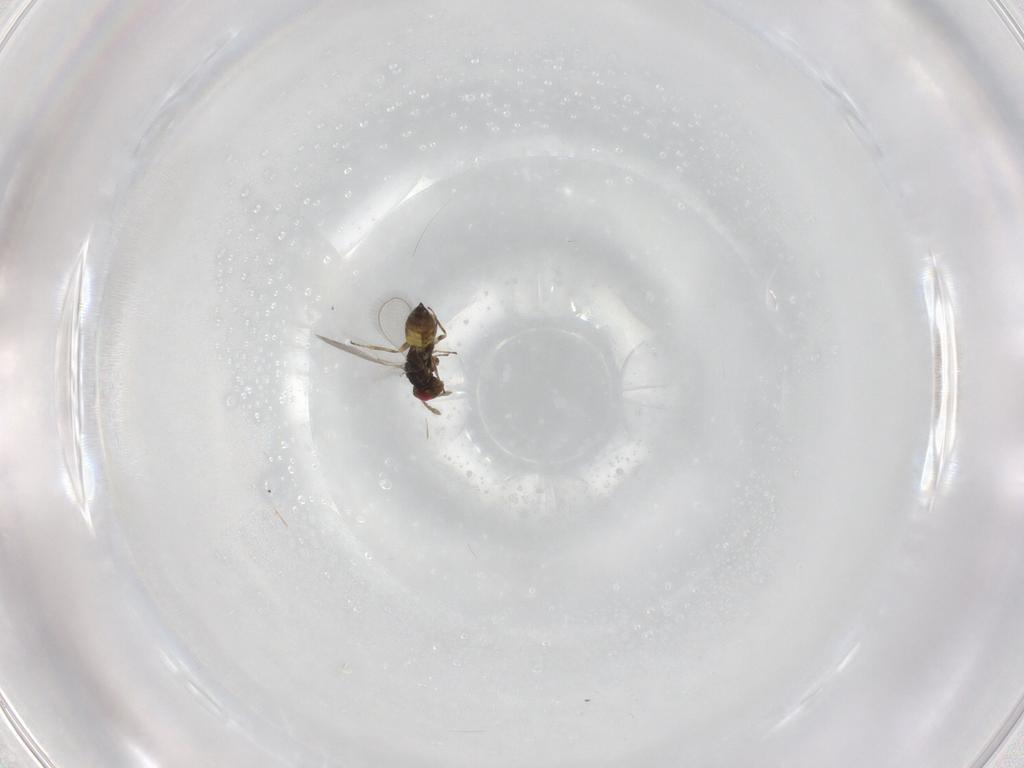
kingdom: Animalia
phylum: Arthropoda
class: Insecta
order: Hymenoptera
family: Eulophidae
